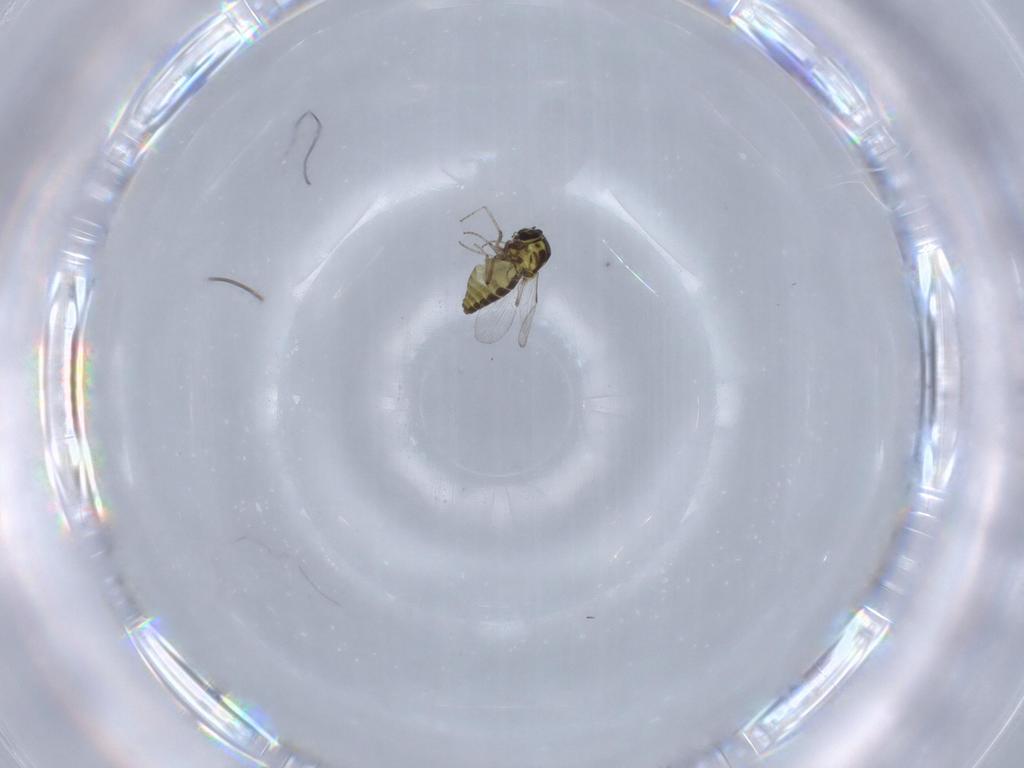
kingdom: Animalia
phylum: Arthropoda
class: Insecta
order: Diptera
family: Ceratopogonidae
